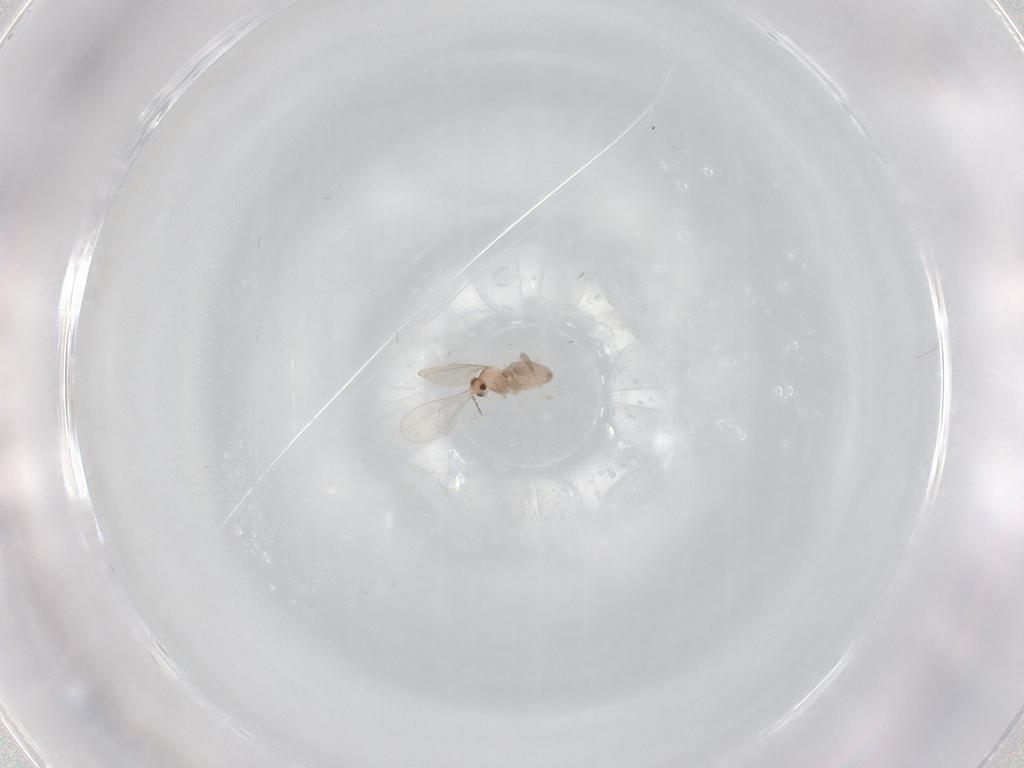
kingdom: Animalia
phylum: Arthropoda
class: Insecta
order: Diptera
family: Cecidomyiidae
